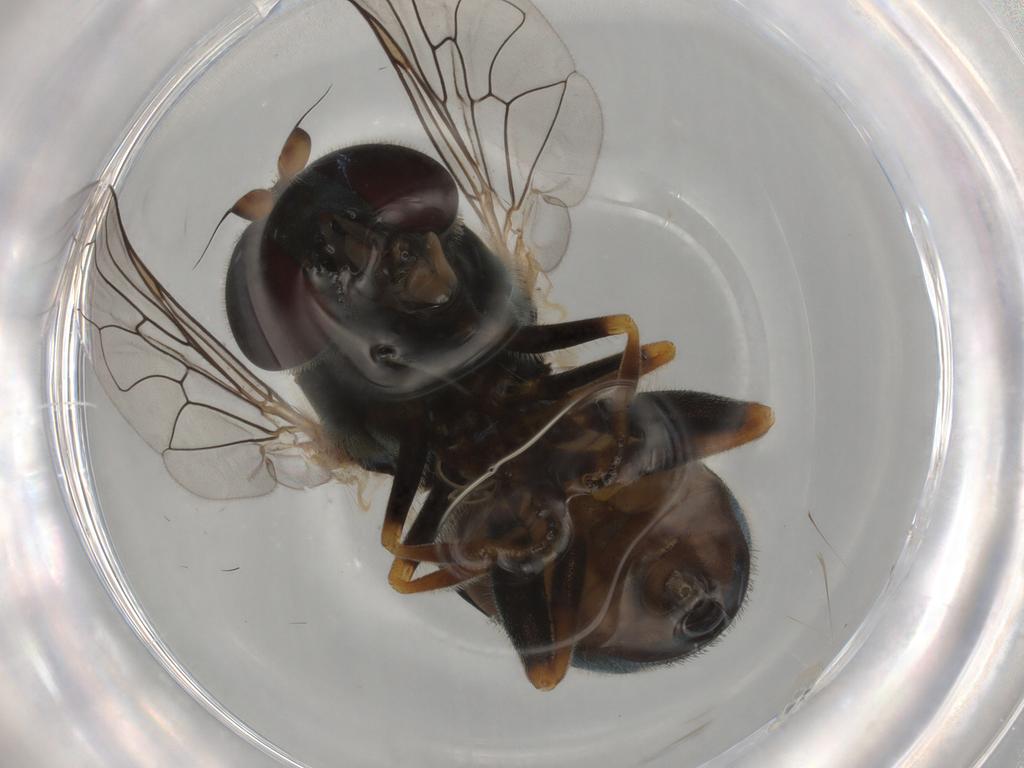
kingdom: Animalia
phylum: Arthropoda
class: Insecta
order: Diptera
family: Syrphidae
